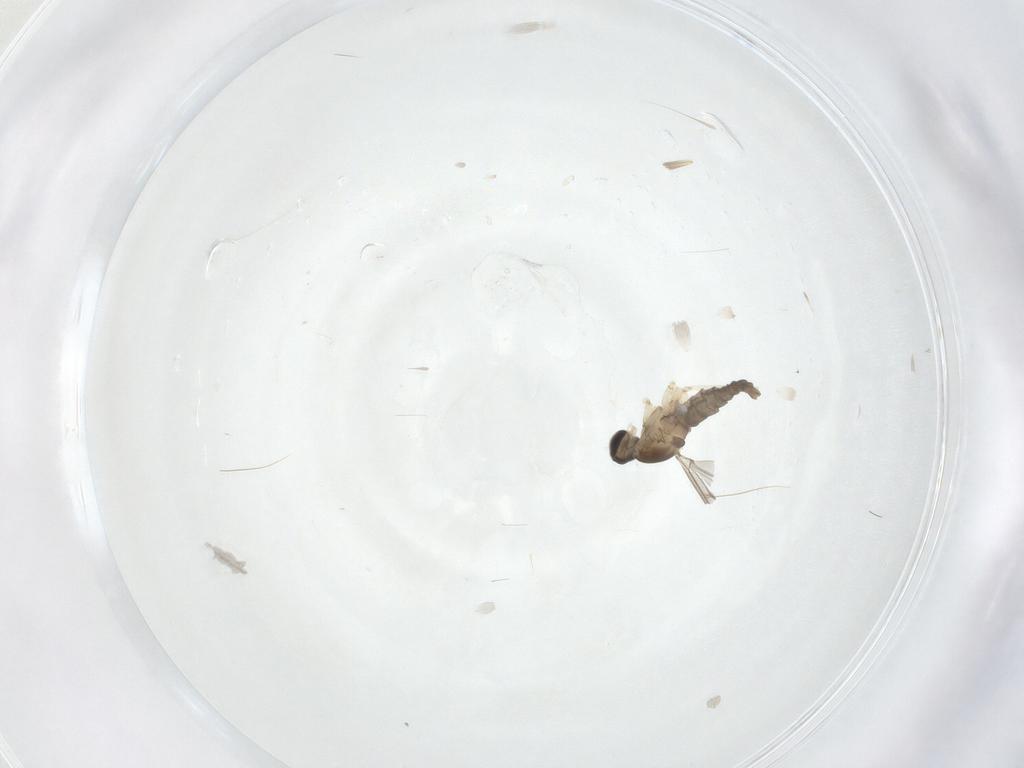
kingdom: Animalia
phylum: Arthropoda
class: Insecta
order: Diptera
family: Cecidomyiidae
